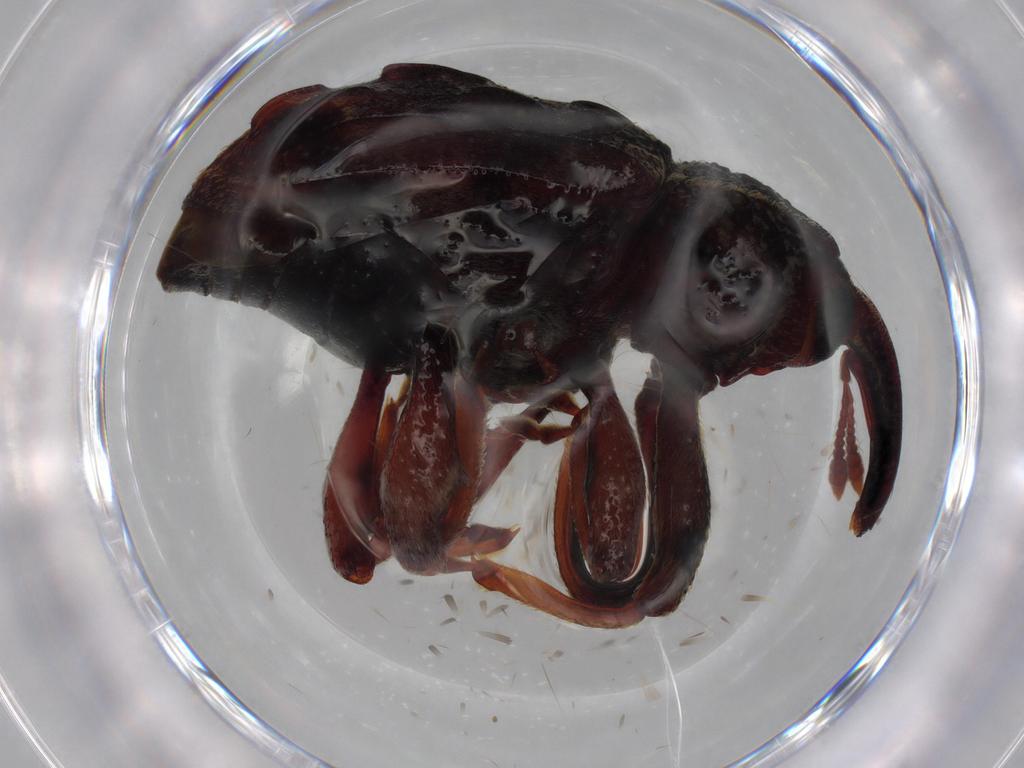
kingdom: Animalia
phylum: Arthropoda
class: Insecta
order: Coleoptera
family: Curculionidae
